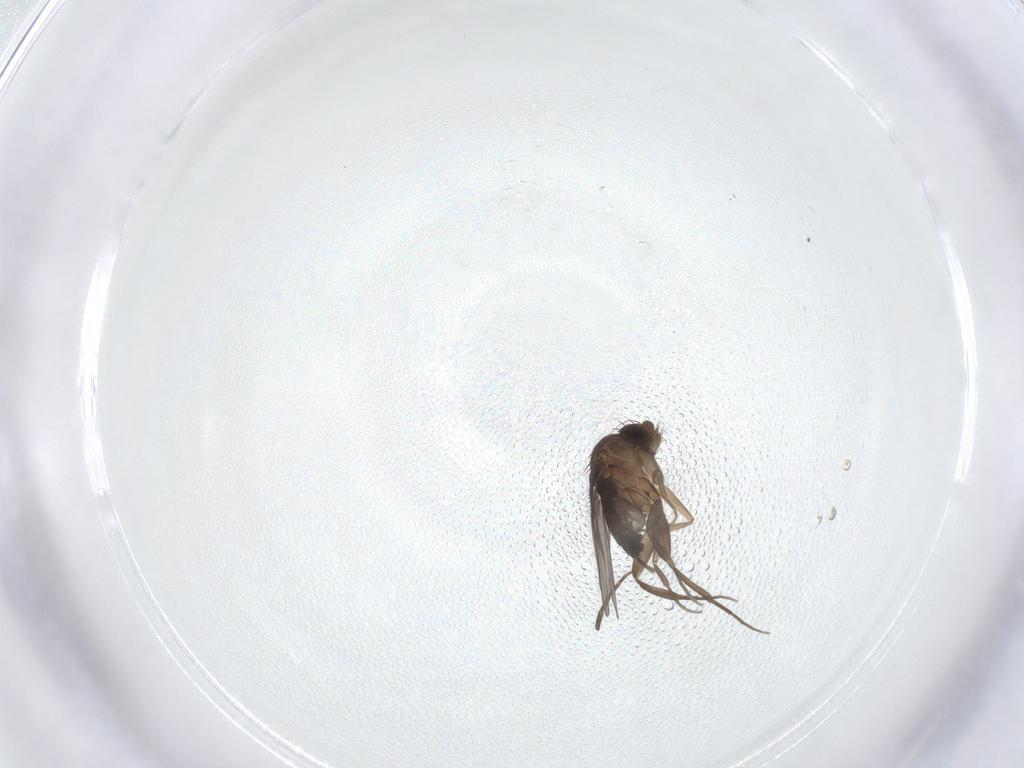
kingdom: Animalia
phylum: Arthropoda
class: Insecta
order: Diptera
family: Phoridae
